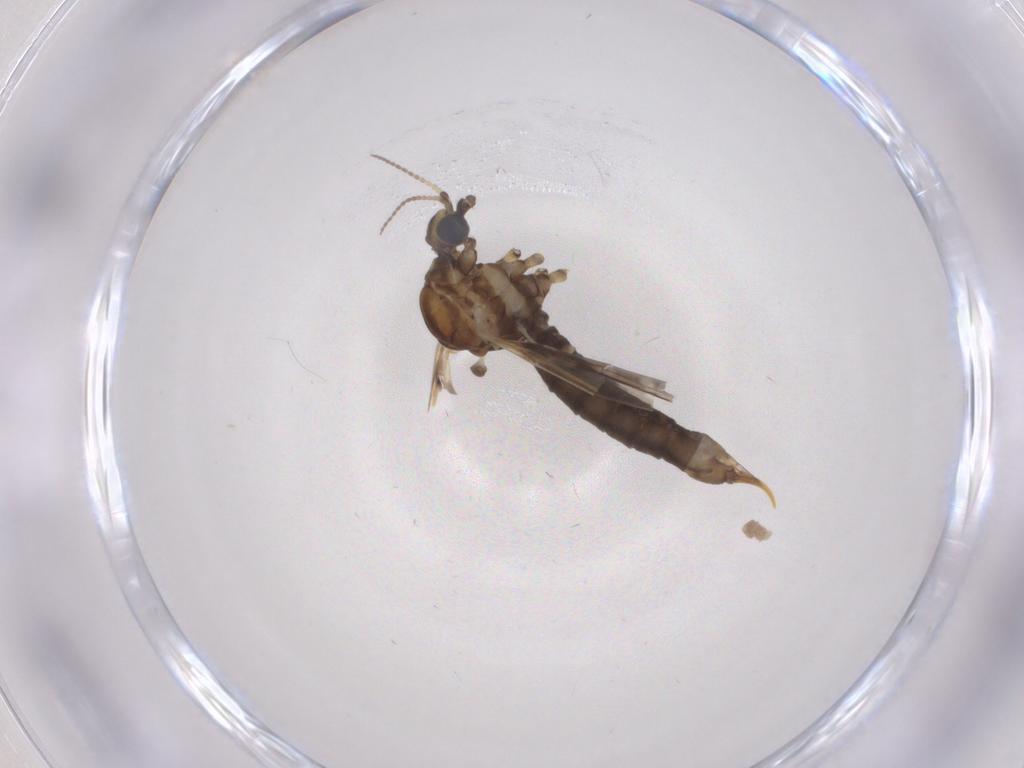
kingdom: Animalia
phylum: Arthropoda
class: Insecta
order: Diptera
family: Limoniidae
